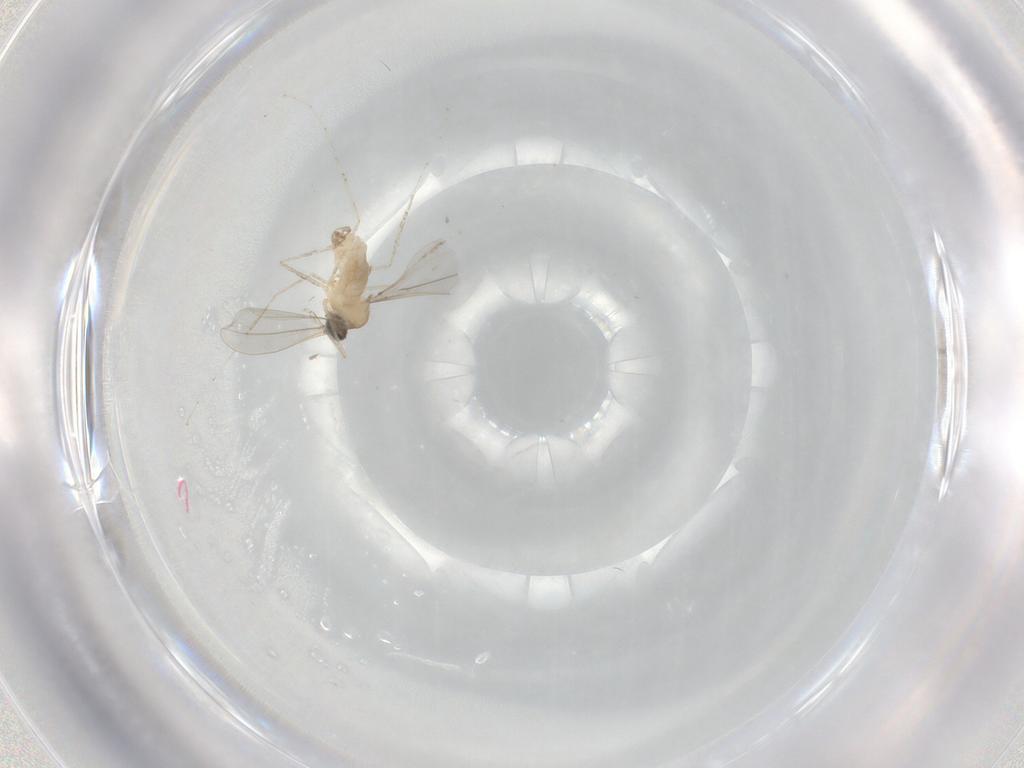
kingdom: Animalia
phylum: Arthropoda
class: Insecta
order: Diptera
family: Cecidomyiidae
